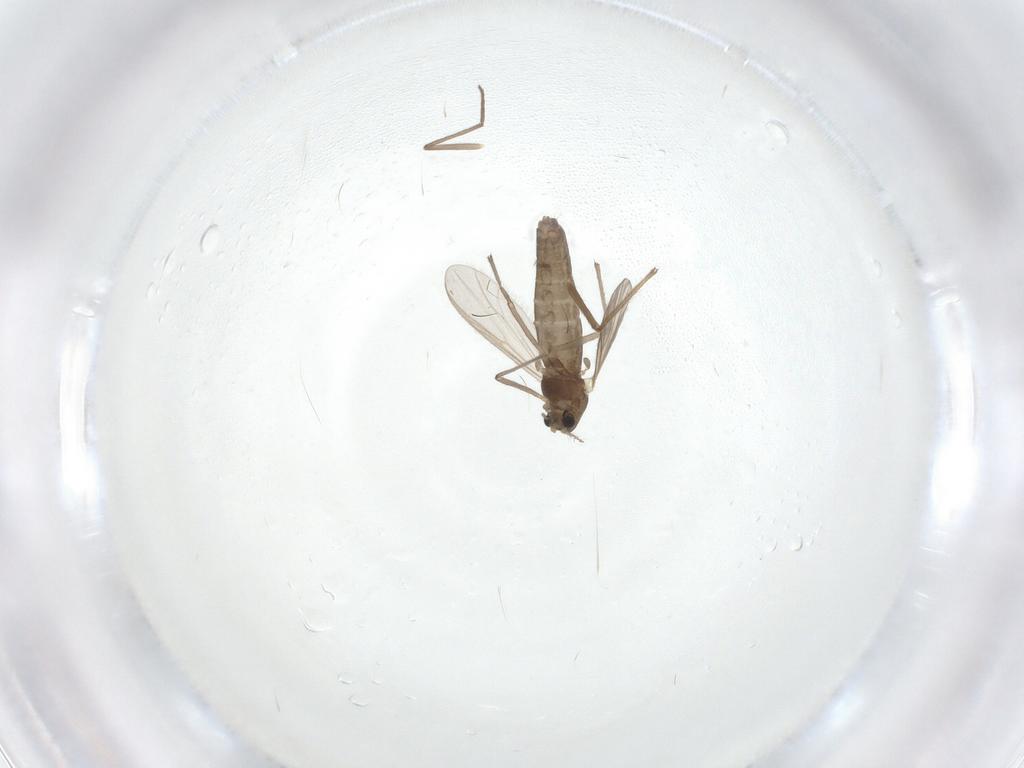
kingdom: Animalia
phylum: Arthropoda
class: Insecta
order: Diptera
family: Chironomidae
